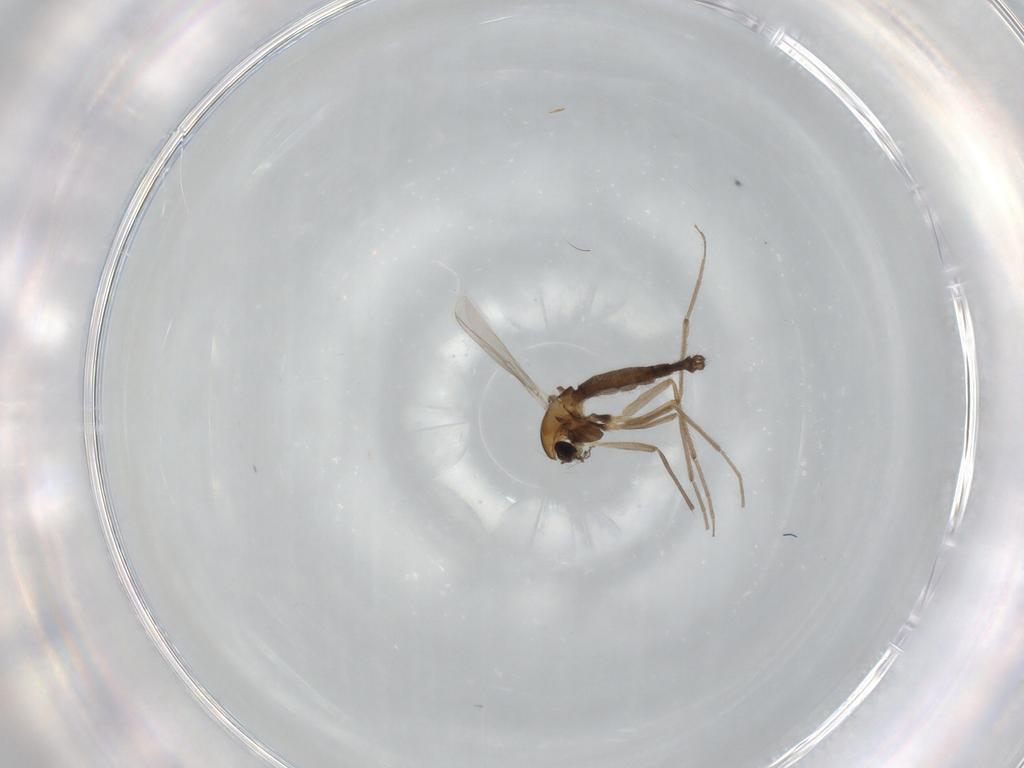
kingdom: Animalia
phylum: Arthropoda
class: Insecta
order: Diptera
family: Chironomidae
